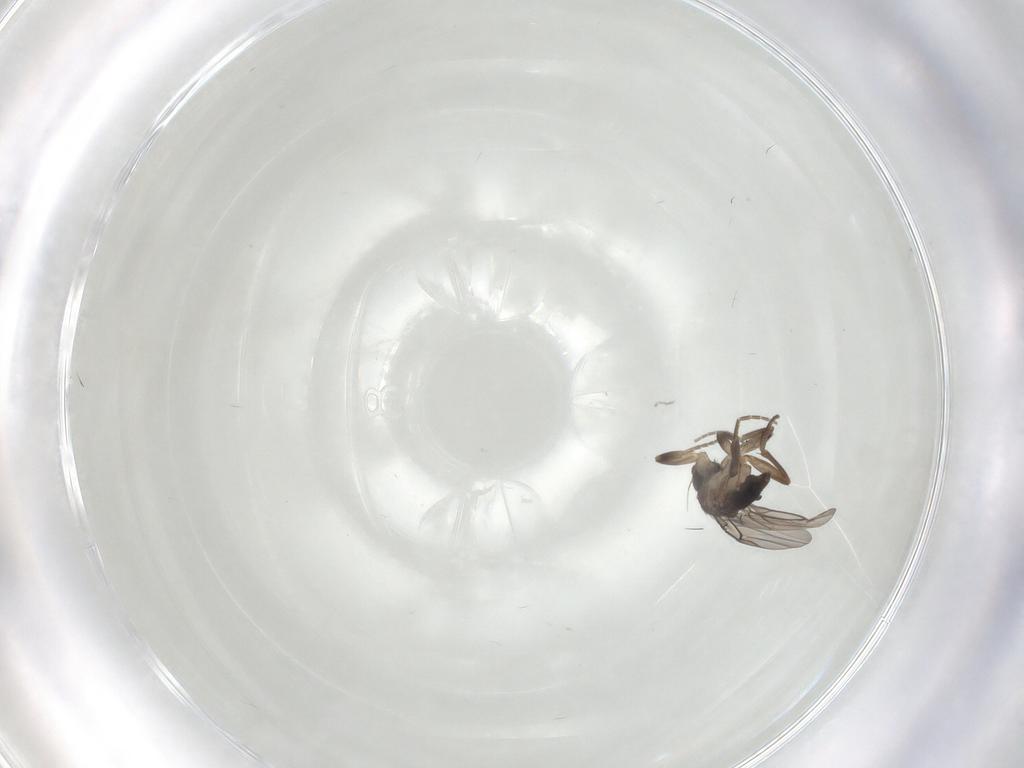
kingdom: Animalia
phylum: Arthropoda
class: Insecta
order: Diptera
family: Phoridae
